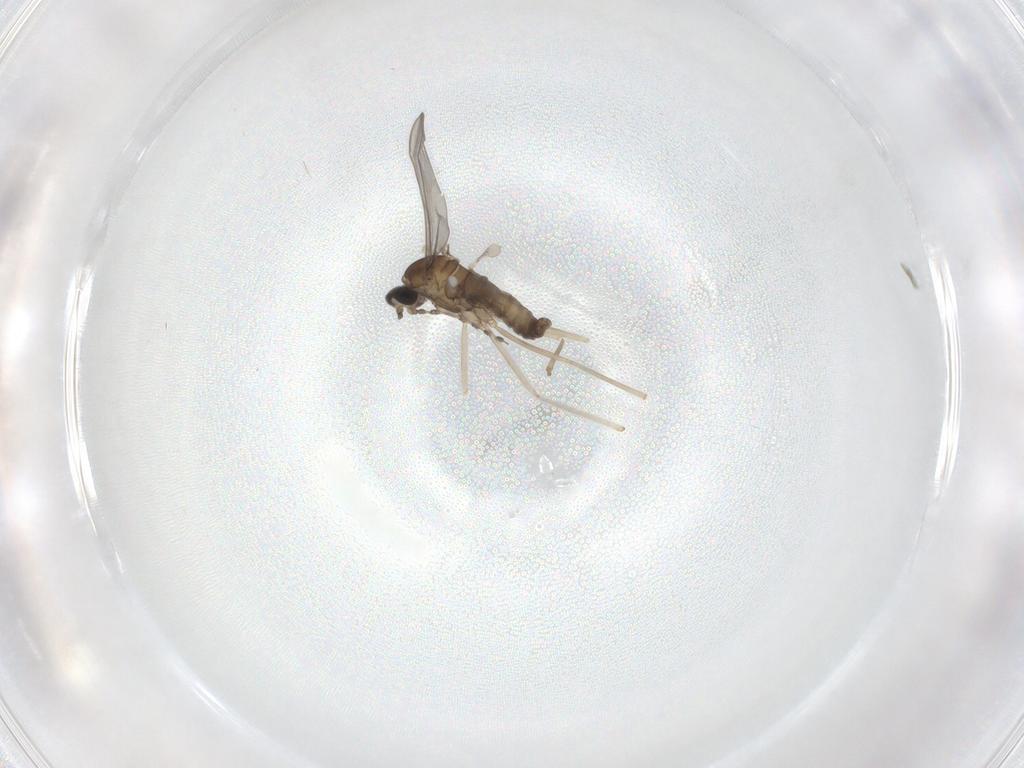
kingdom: Animalia
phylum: Arthropoda
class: Insecta
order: Diptera
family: Cecidomyiidae
